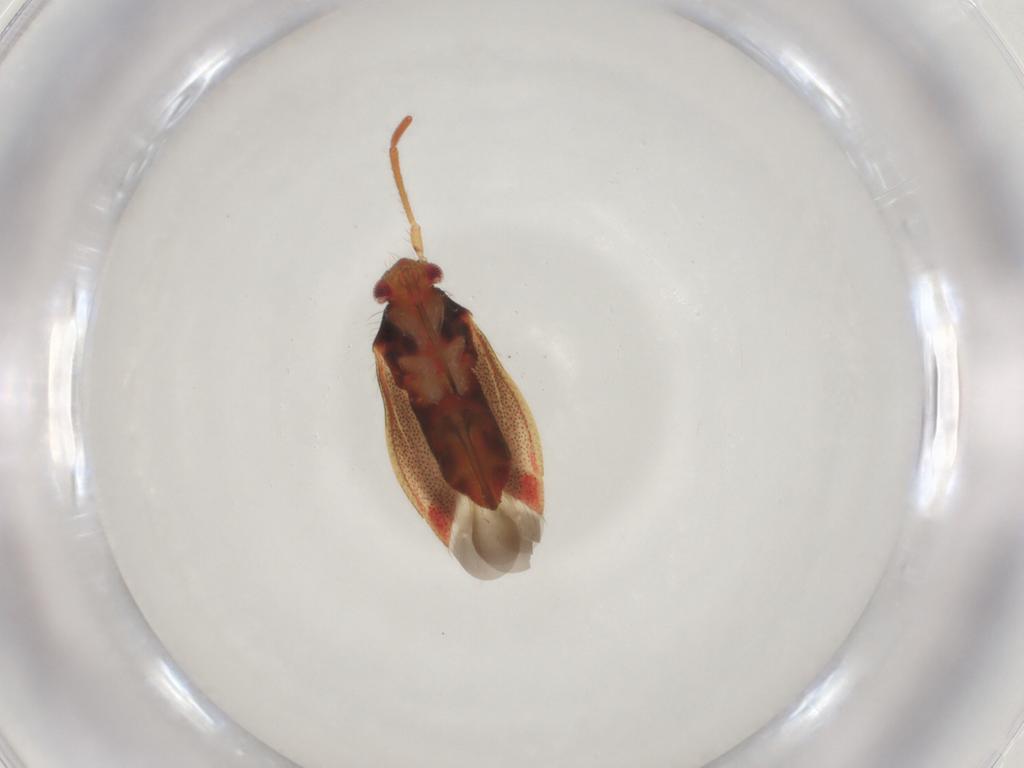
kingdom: Animalia
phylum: Arthropoda
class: Insecta
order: Hemiptera
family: Miridae
